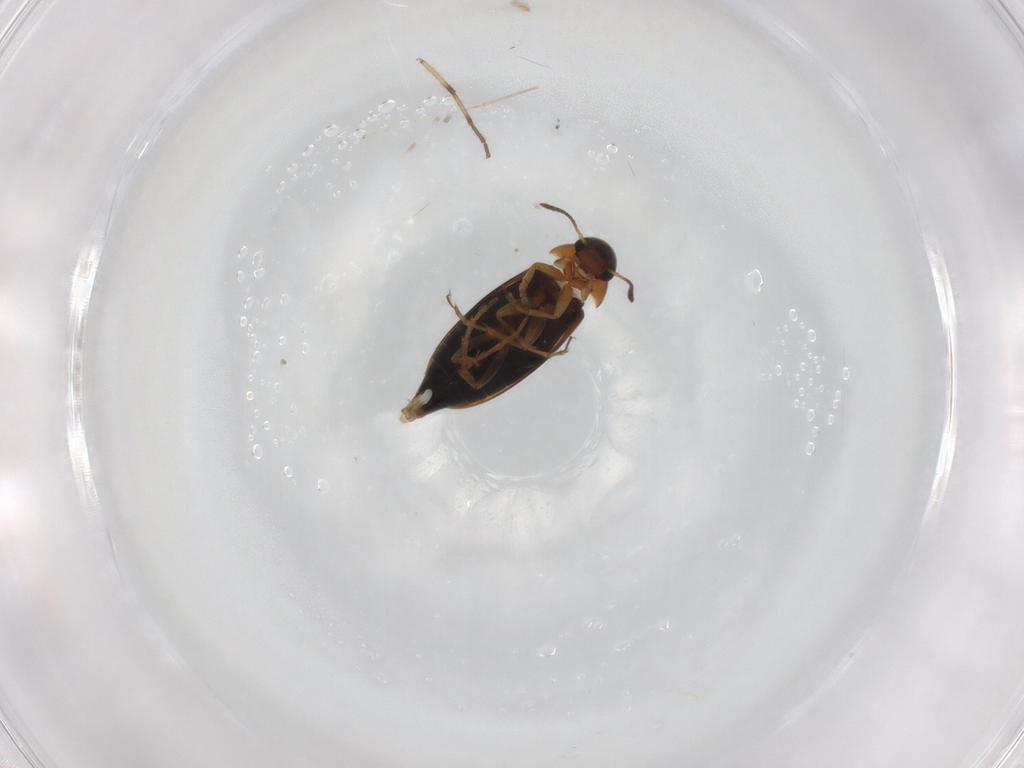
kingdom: Animalia
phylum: Arthropoda
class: Insecta
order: Coleoptera
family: Scraptiidae
